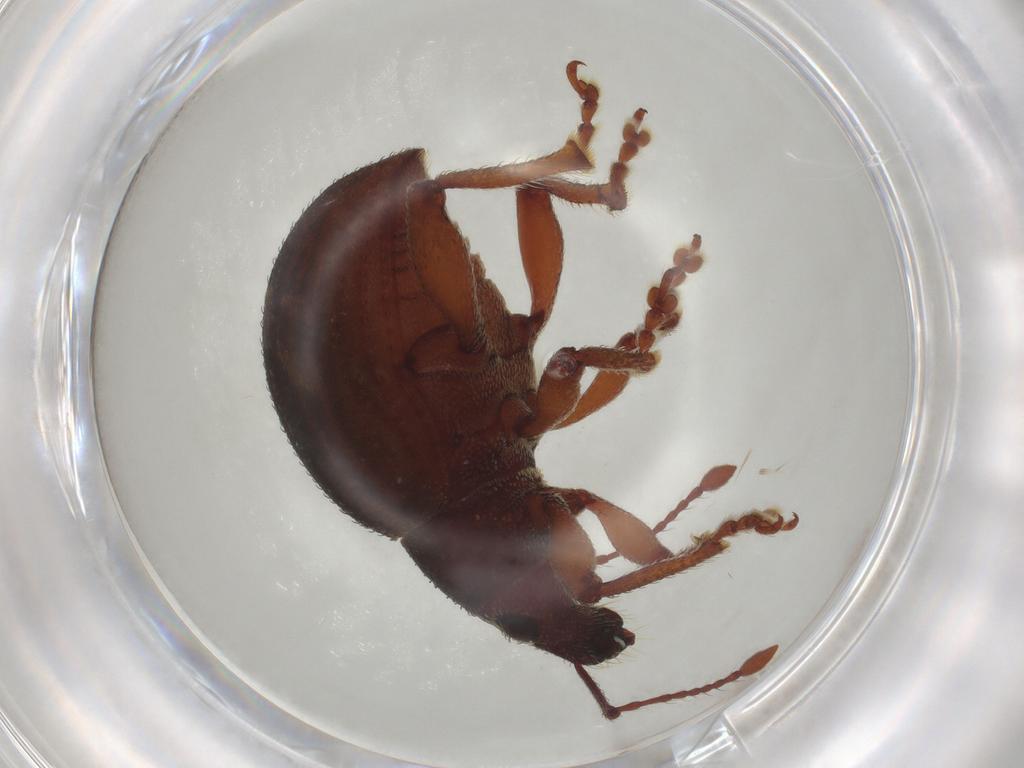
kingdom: Animalia
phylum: Arthropoda
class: Insecta
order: Coleoptera
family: Curculionidae
